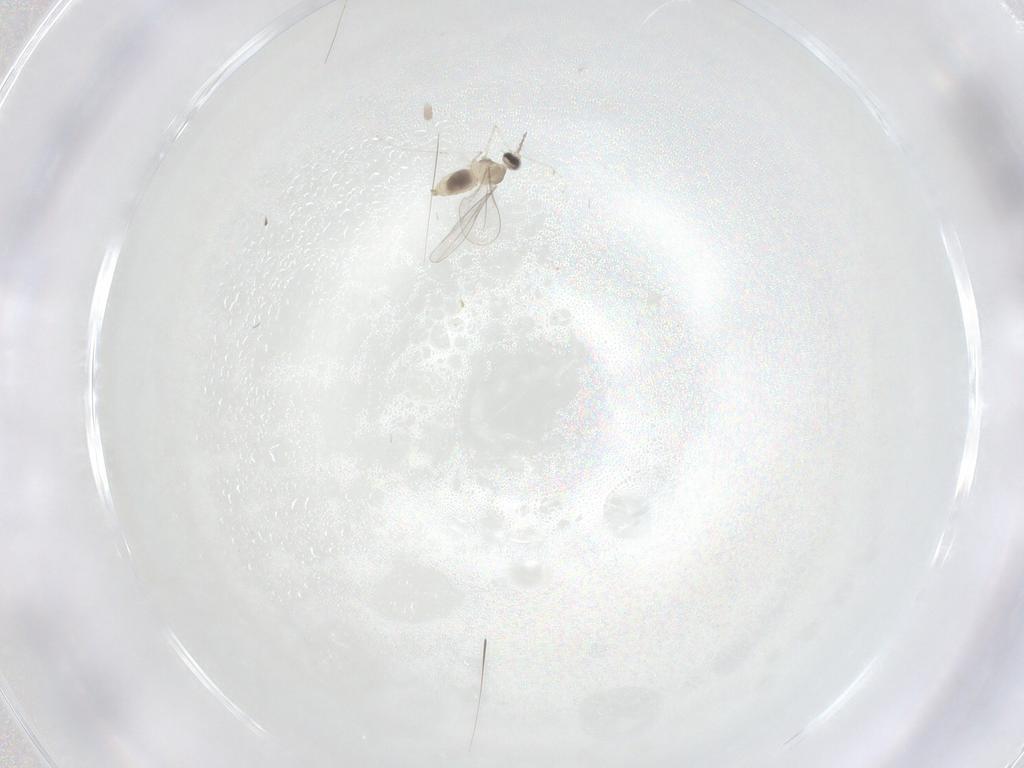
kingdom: Animalia
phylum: Arthropoda
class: Insecta
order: Diptera
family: Cecidomyiidae
